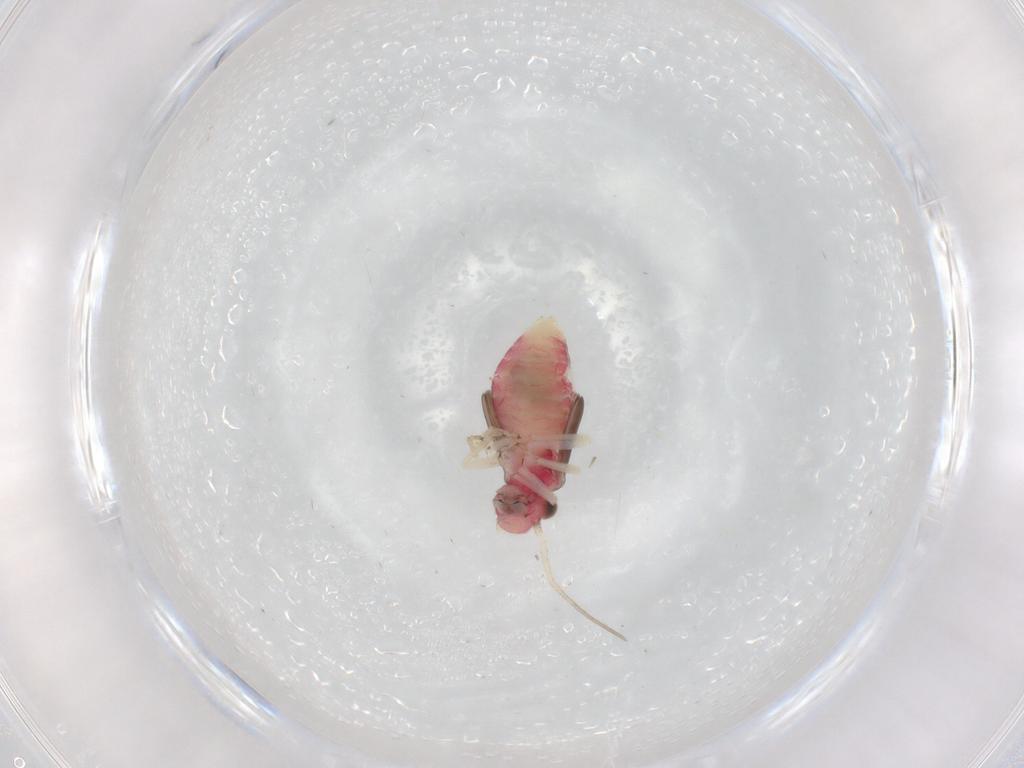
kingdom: Animalia
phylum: Arthropoda
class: Insecta
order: Psocodea
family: Caeciliusidae
